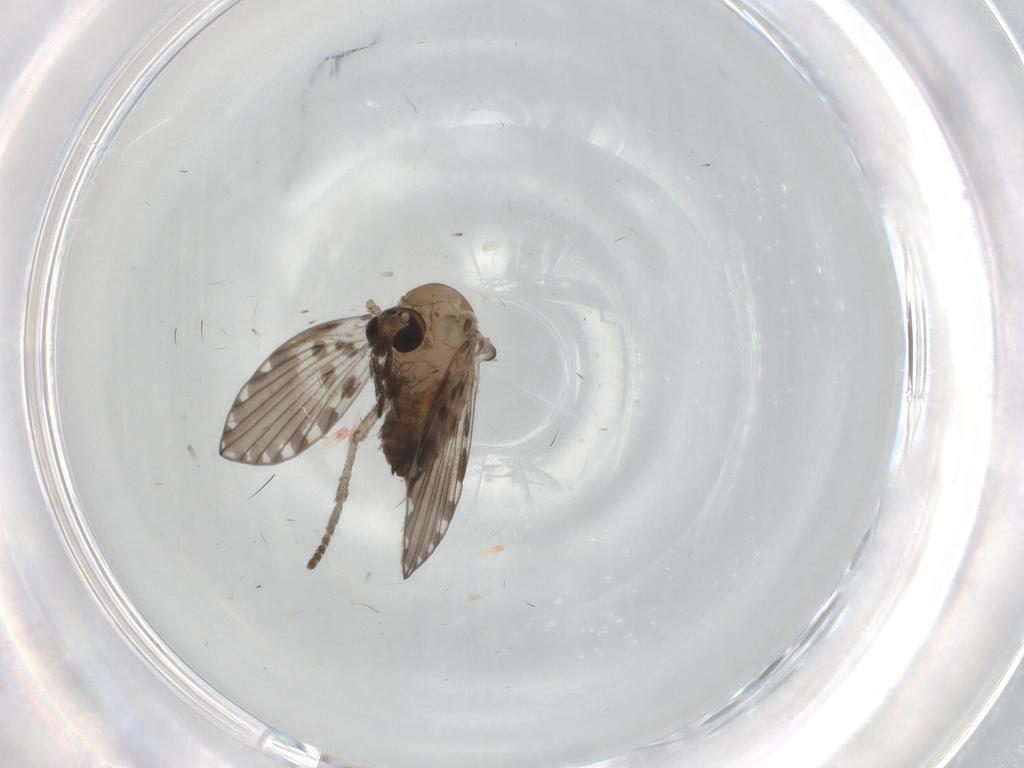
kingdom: Animalia
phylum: Arthropoda
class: Insecta
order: Diptera
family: Psychodidae
